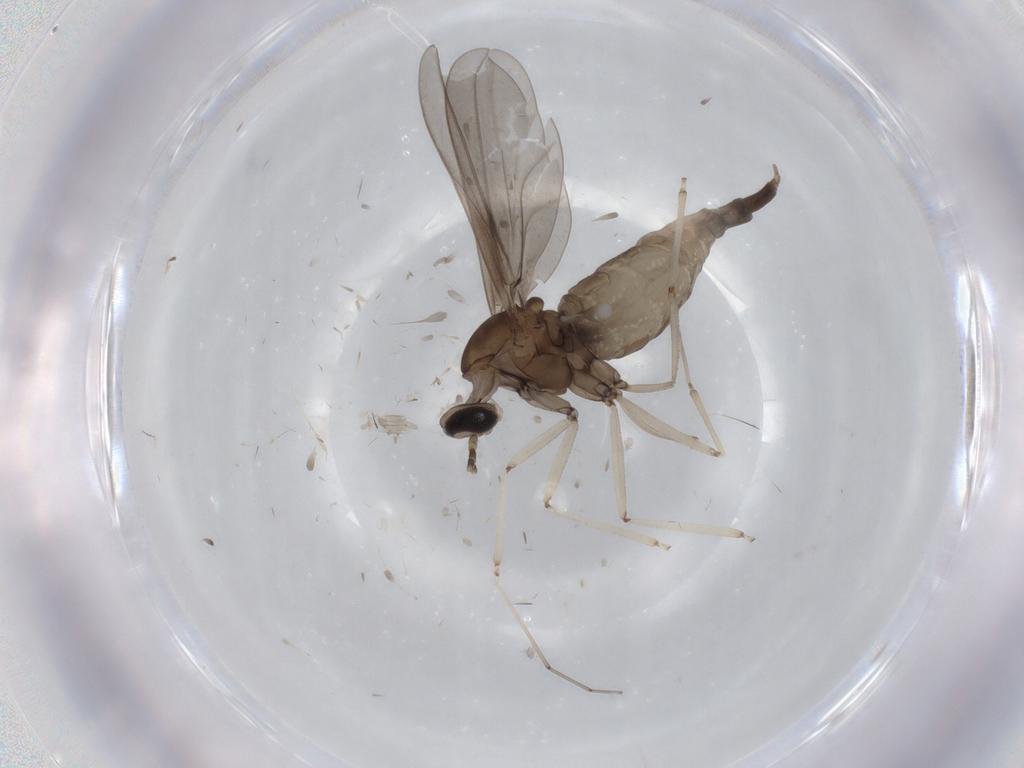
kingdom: Animalia
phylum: Arthropoda
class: Insecta
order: Diptera
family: Cecidomyiidae
